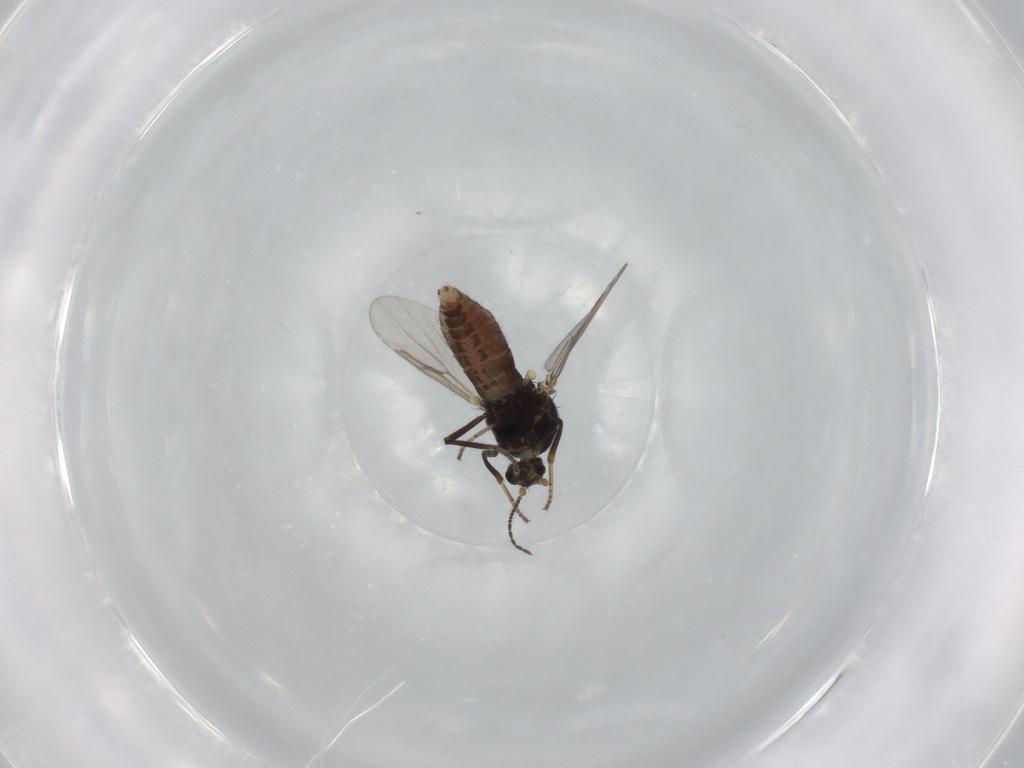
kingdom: Animalia
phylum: Arthropoda
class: Insecta
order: Diptera
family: Ceratopogonidae
